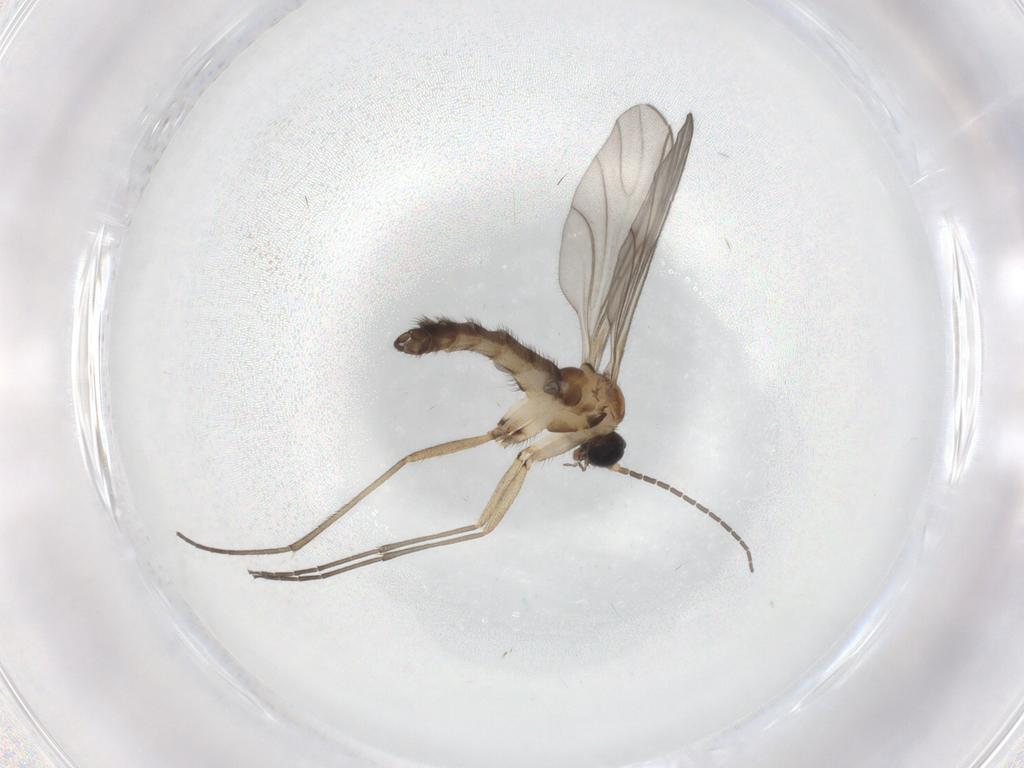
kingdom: Animalia
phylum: Arthropoda
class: Insecta
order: Diptera
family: Sciaridae
